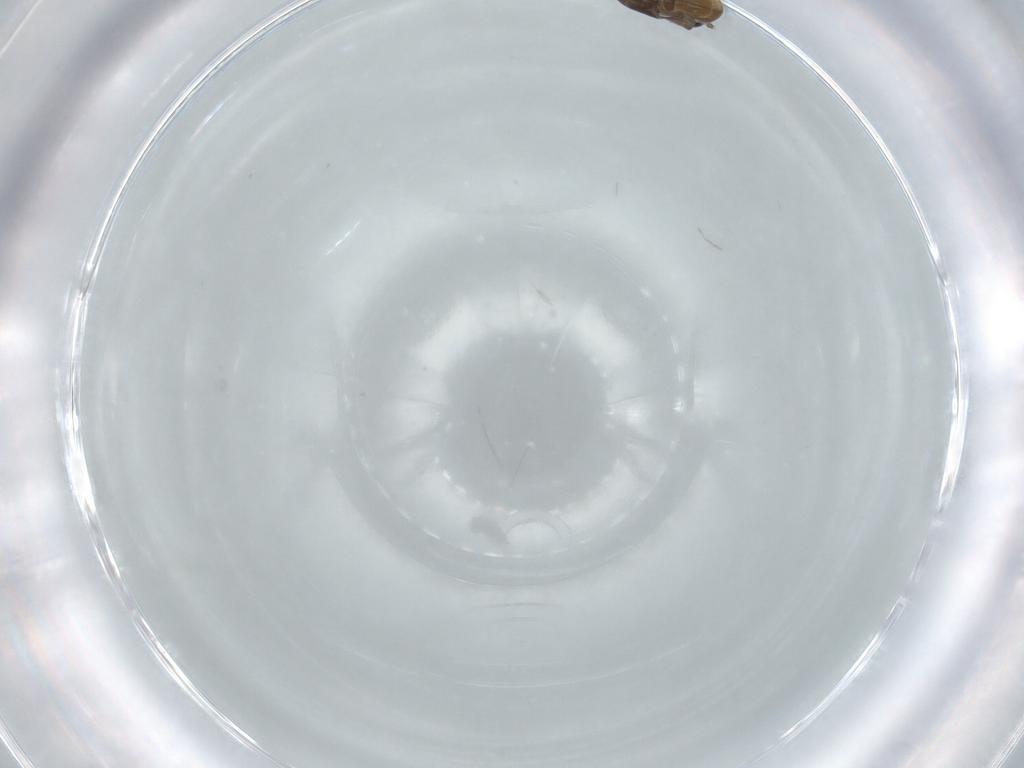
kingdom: Animalia
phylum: Arthropoda
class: Insecta
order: Diptera
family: Psychodidae
